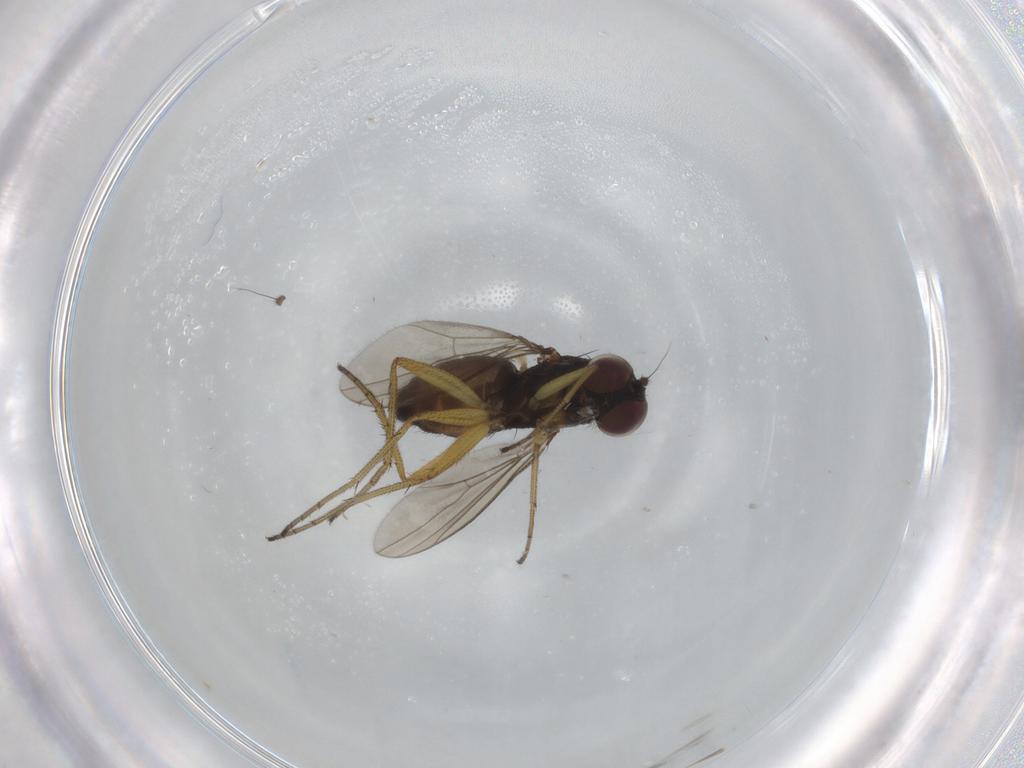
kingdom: Animalia
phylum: Arthropoda
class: Insecta
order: Diptera
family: Dolichopodidae
